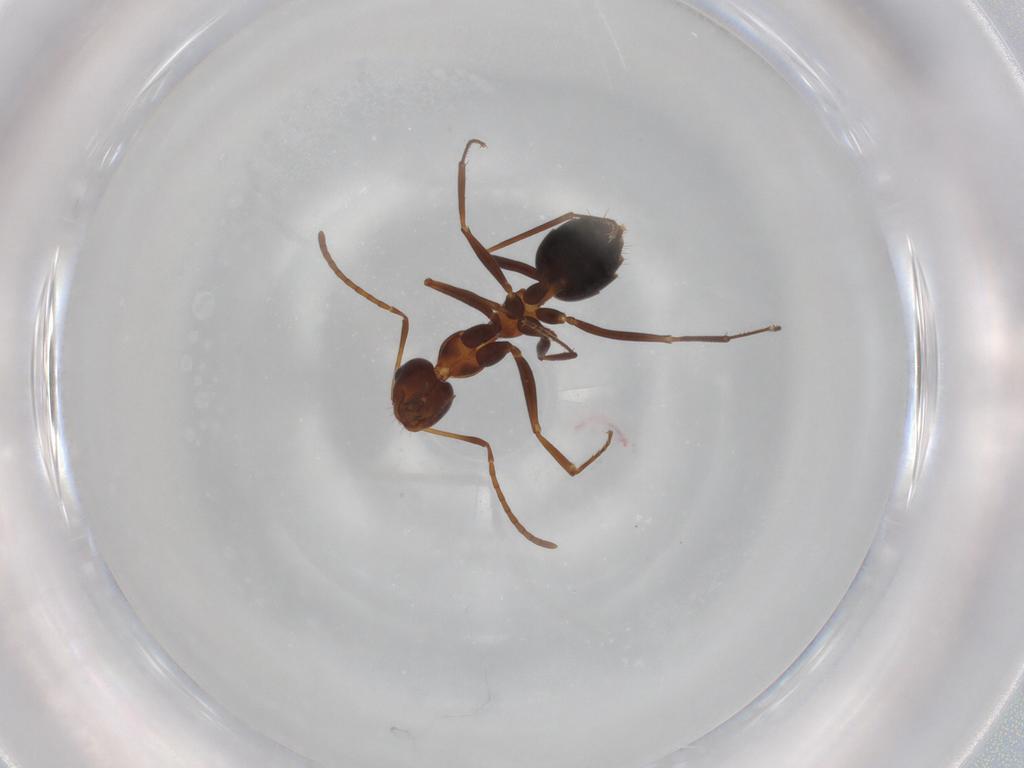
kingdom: Animalia
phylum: Arthropoda
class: Insecta
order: Hymenoptera
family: Formicidae
